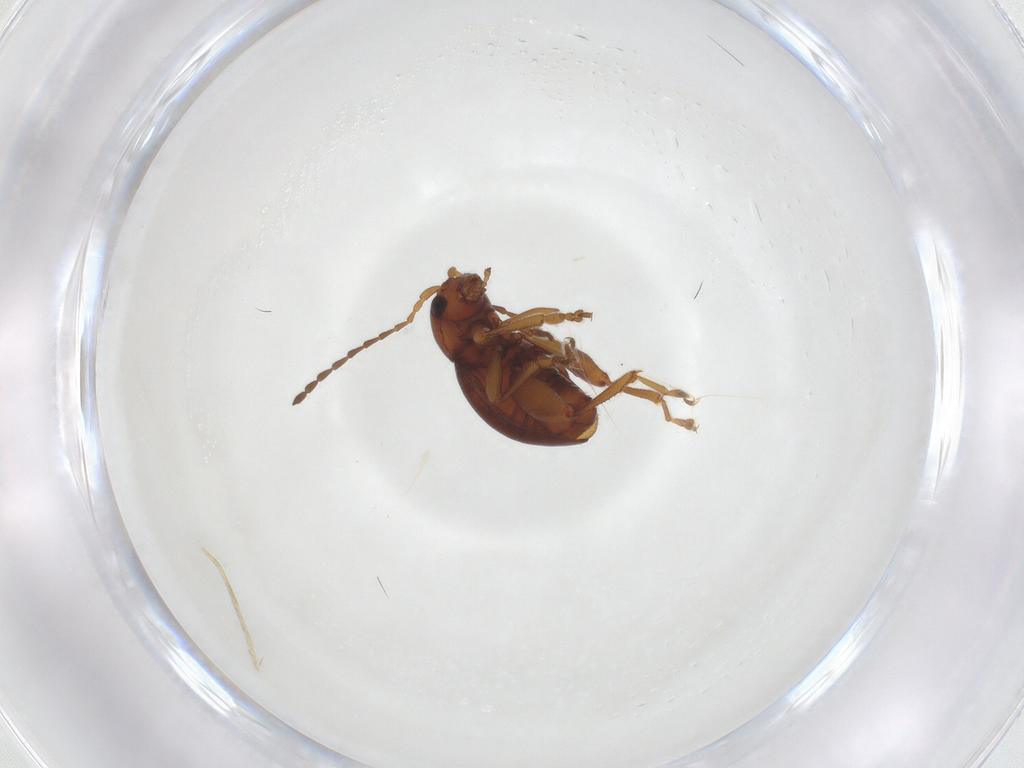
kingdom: Animalia
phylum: Arthropoda
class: Insecta
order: Coleoptera
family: Chrysomelidae
